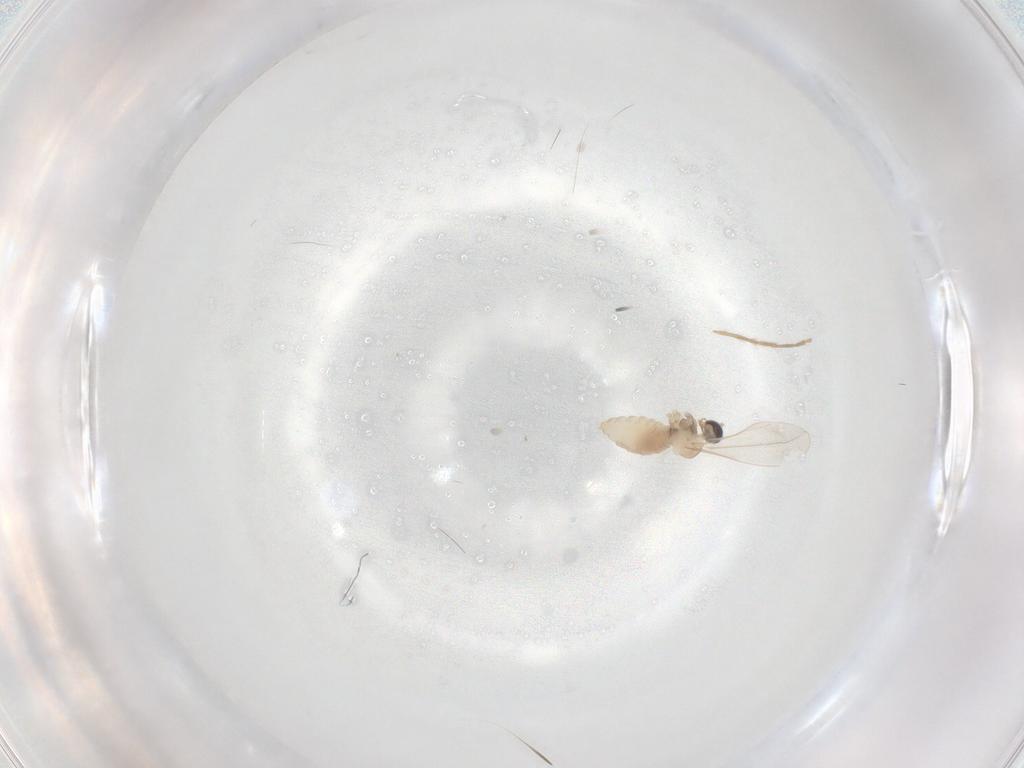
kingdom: Animalia
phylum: Arthropoda
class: Insecta
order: Diptera
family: Cecidomyiidae
